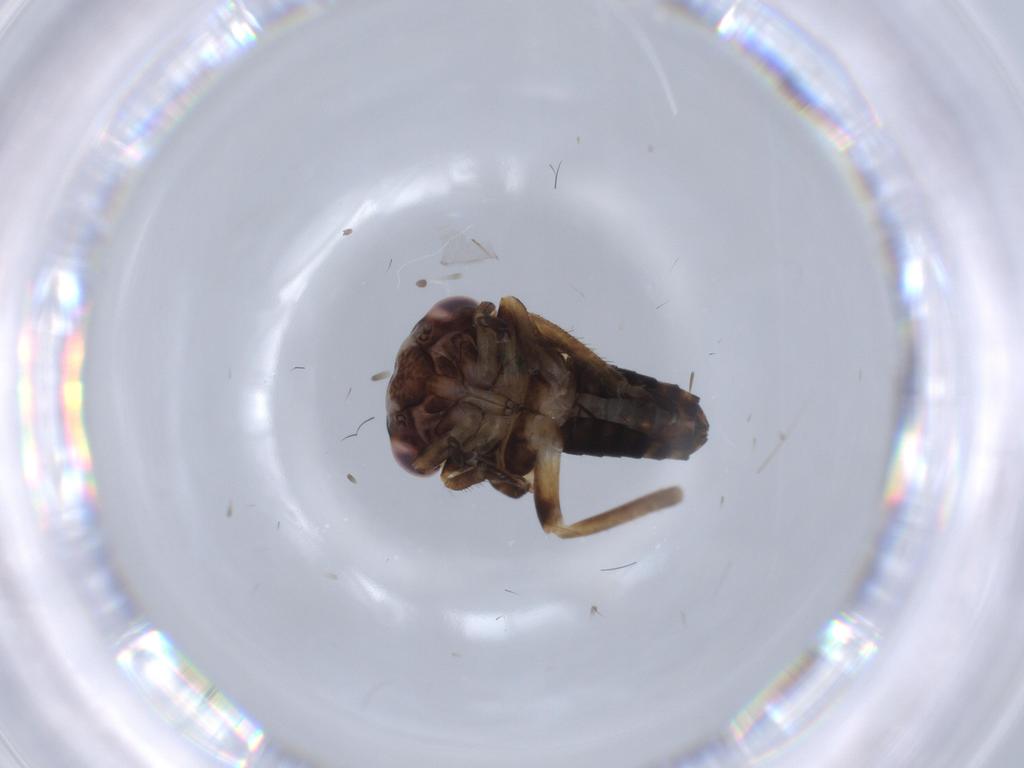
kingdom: Animalia
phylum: Arthropoda
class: Insecta
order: Hemiptera
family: Cicadellidae
